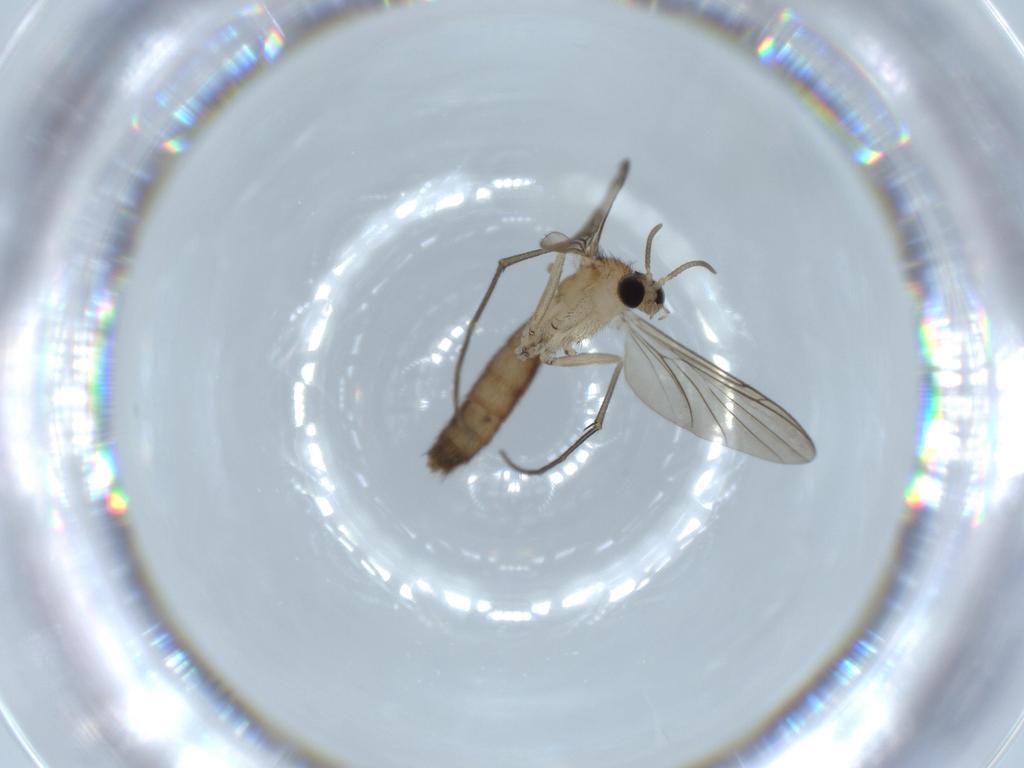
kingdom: Animalia
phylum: Arthropoda
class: Insecta
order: Diptera
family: Keroplatidae
